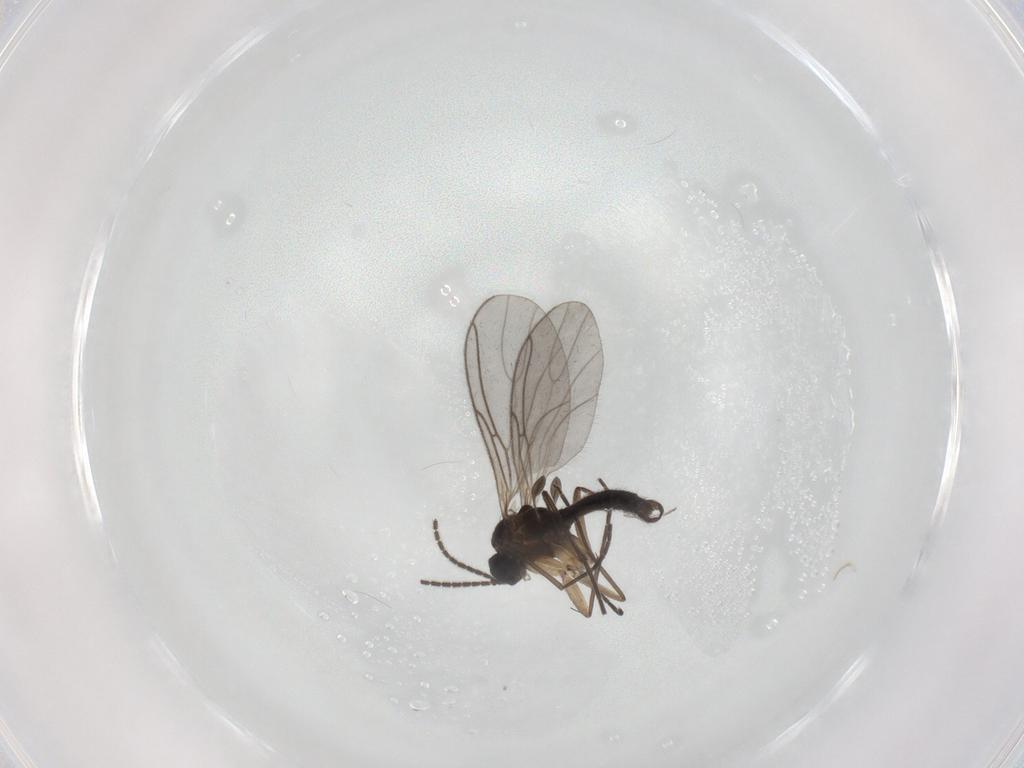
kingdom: Animalia
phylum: Arthropoda
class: Insecta
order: Diptera
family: Sciaridae
